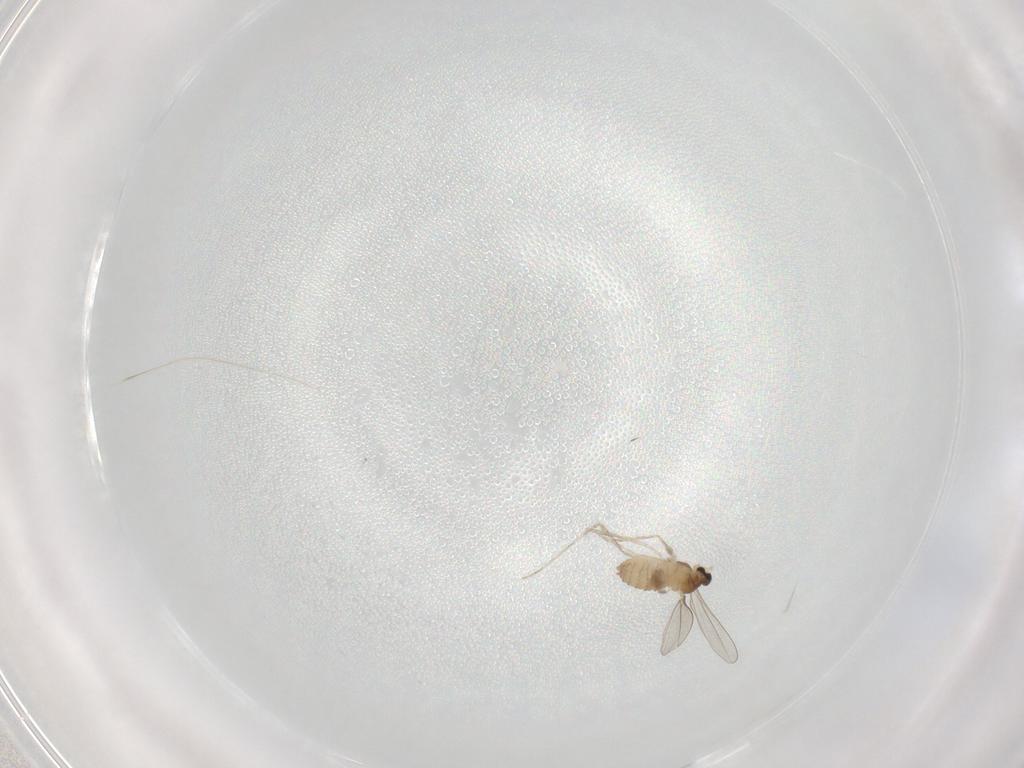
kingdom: Animalia
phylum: Arthropoda
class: Insecta
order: Diptera
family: Cecidomyiidae
